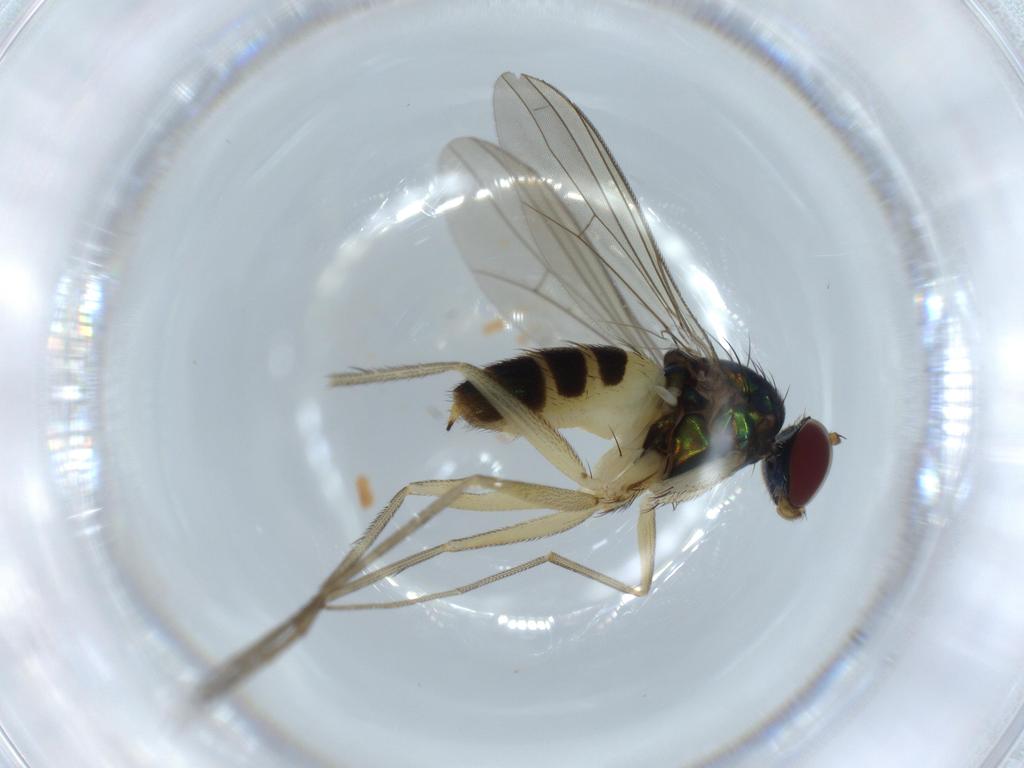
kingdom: Animalia
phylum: Arthropoda
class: Insecta
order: Diptera
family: Dolichopodidae
